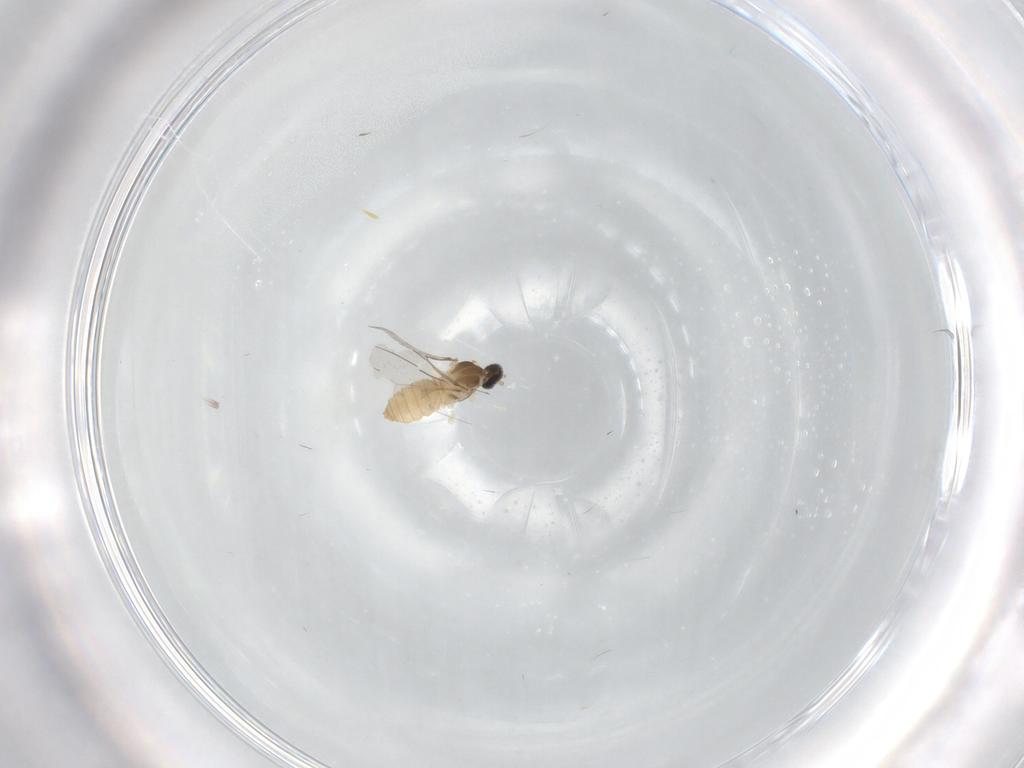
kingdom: Animalia
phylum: Arthropoda
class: Insecta
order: Diptera
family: Cecidomyiidae
